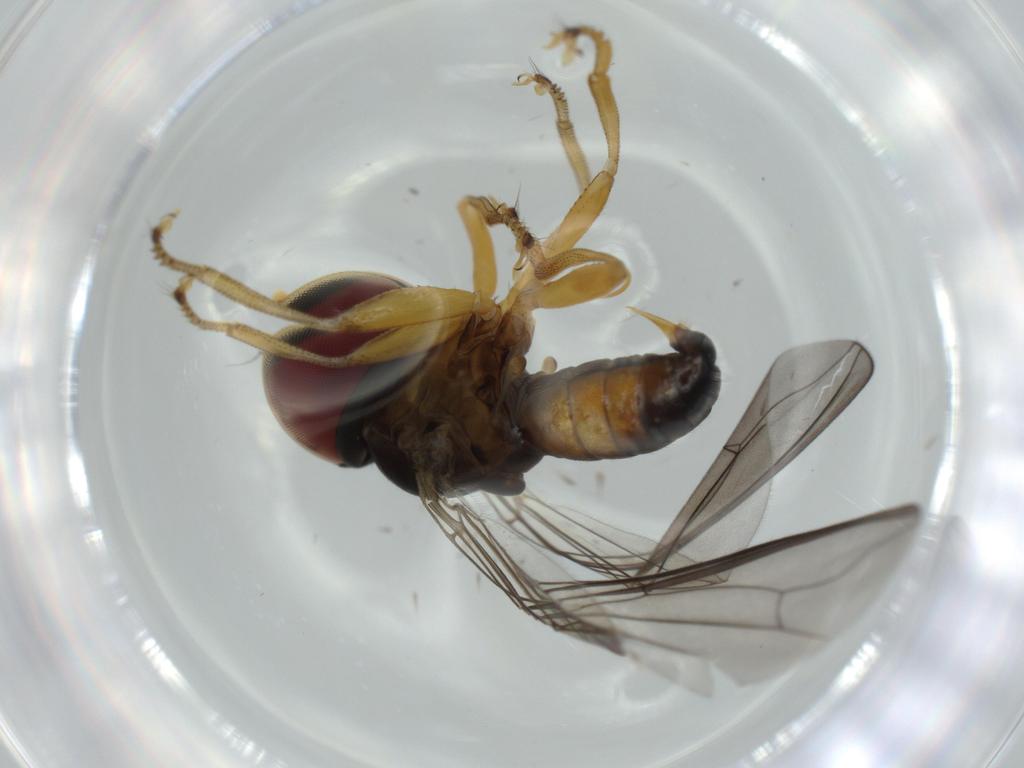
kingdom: Animalia
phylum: Arthropoda
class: Insecta
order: Diptera
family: Pipunculidae
